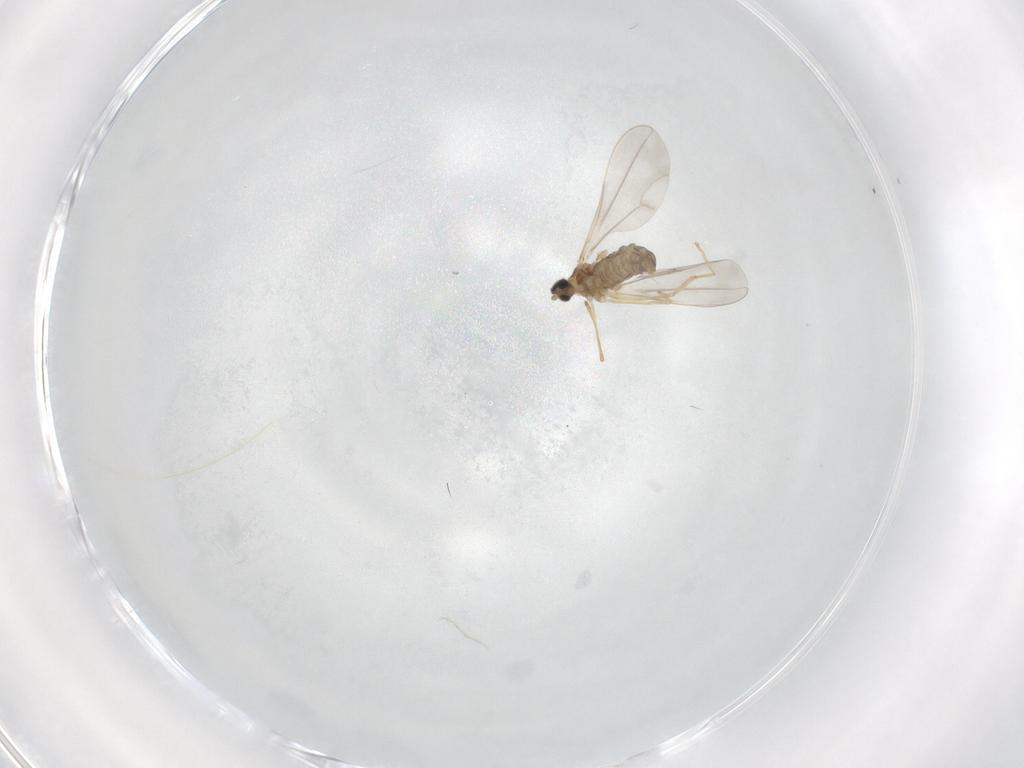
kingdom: Animalia
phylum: Arthropoda
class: Insecta
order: Diptera
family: Cecidomyiidae
